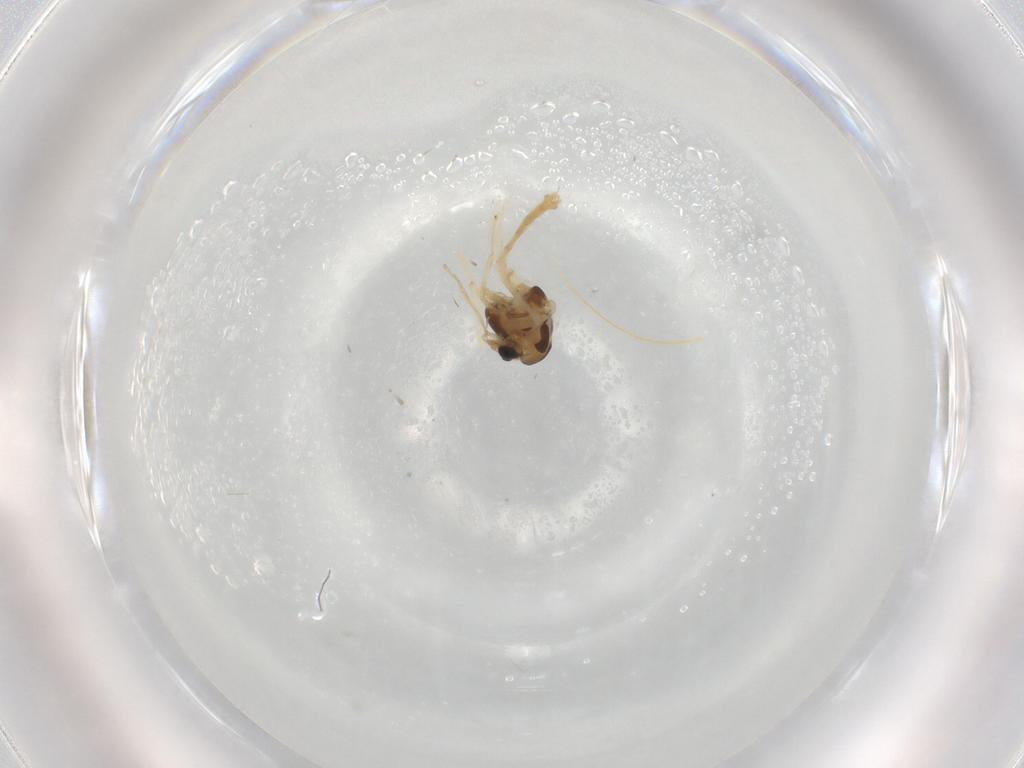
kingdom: Animalia
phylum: Arthropoda
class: Insecta
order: Diptera
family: Chironomidae
